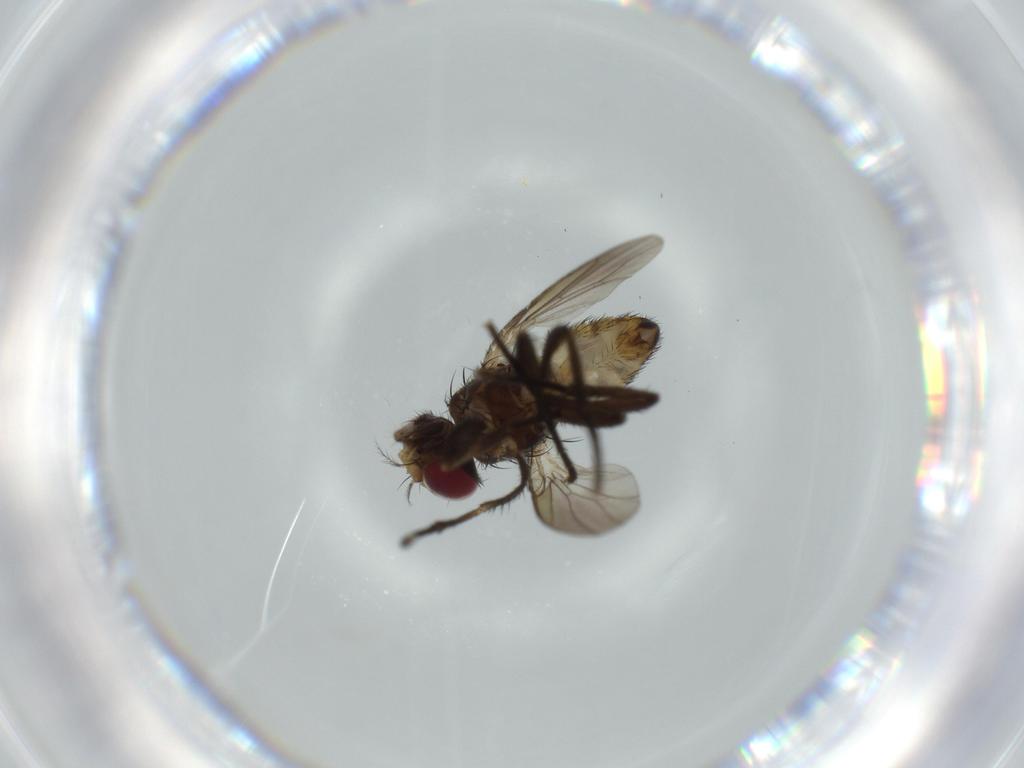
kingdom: Animalia
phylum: Arthropoda
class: Insecta
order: Diptera
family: Anthomyiidae
